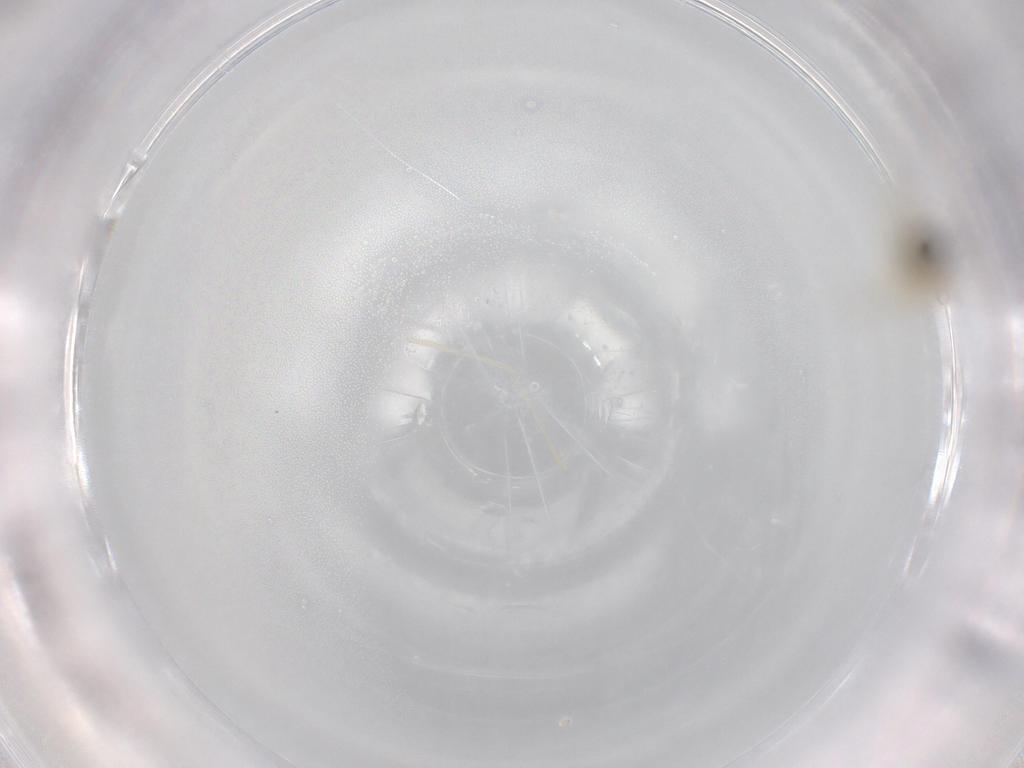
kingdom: Animalia
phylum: Arthropoda
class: Insecta
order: Diptera
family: Cecidomyiidae
